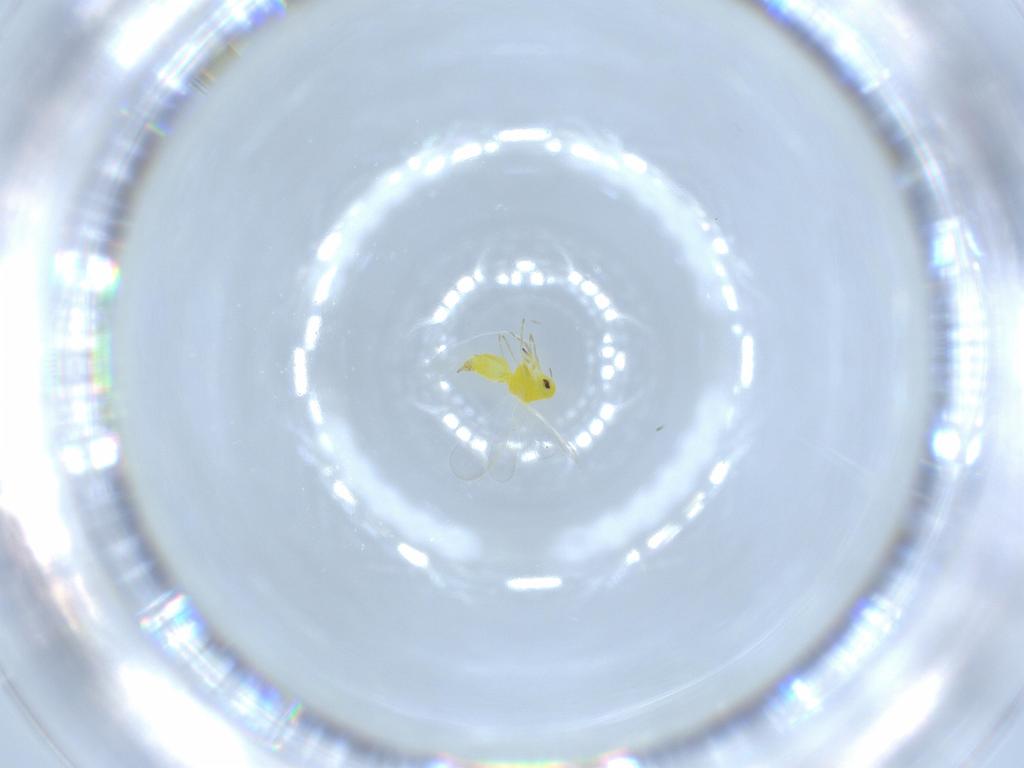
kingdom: Animalia
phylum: Arthropoda
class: Insecta
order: Hemiptera
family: Aleyrodidae
